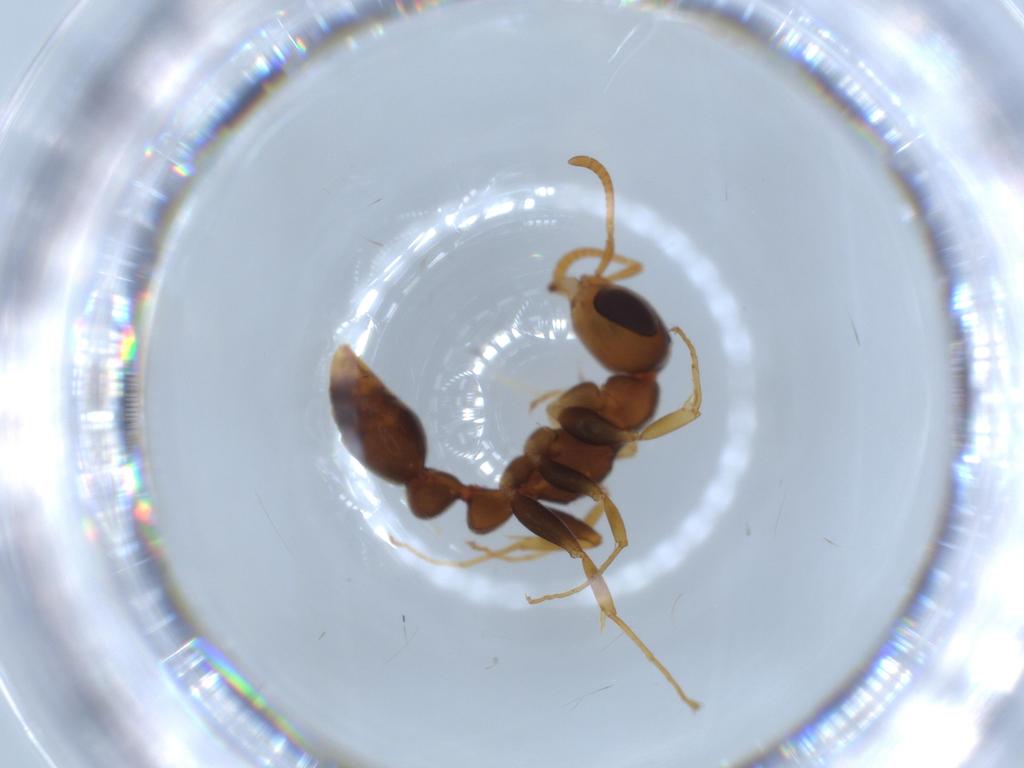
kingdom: Animalia
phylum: Arthropoda
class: Insecta
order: Hymenoptera
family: Formicidae
